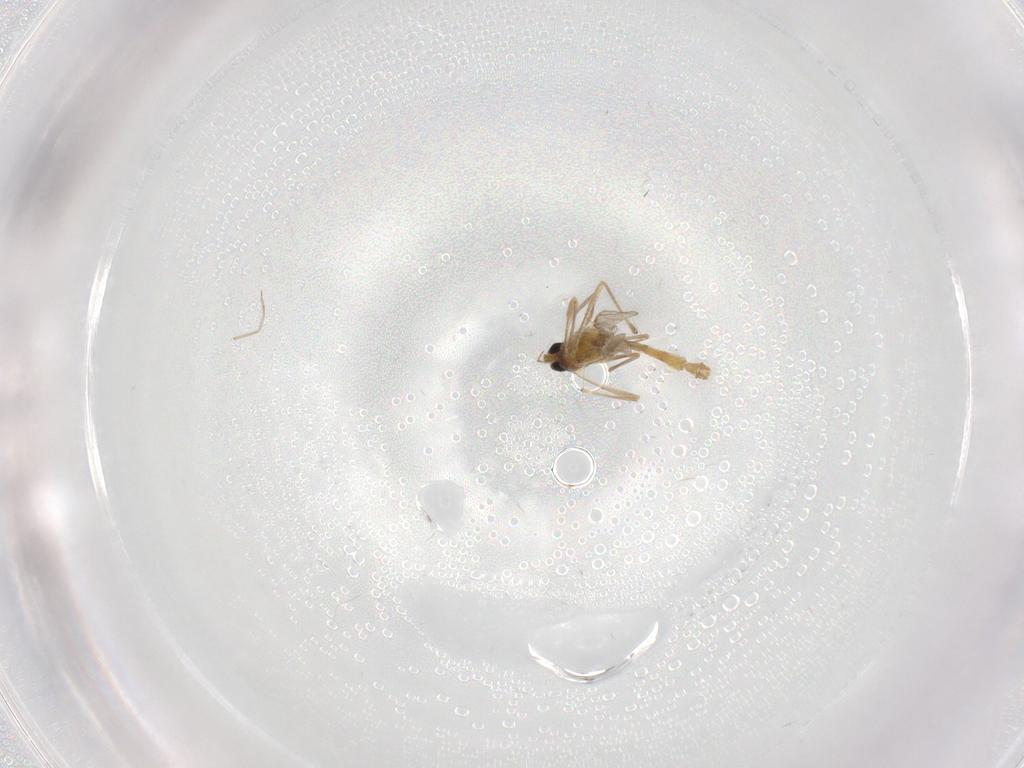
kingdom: Animalia
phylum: Arthropoda
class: Insecta
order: Diptera
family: Chironomidae
